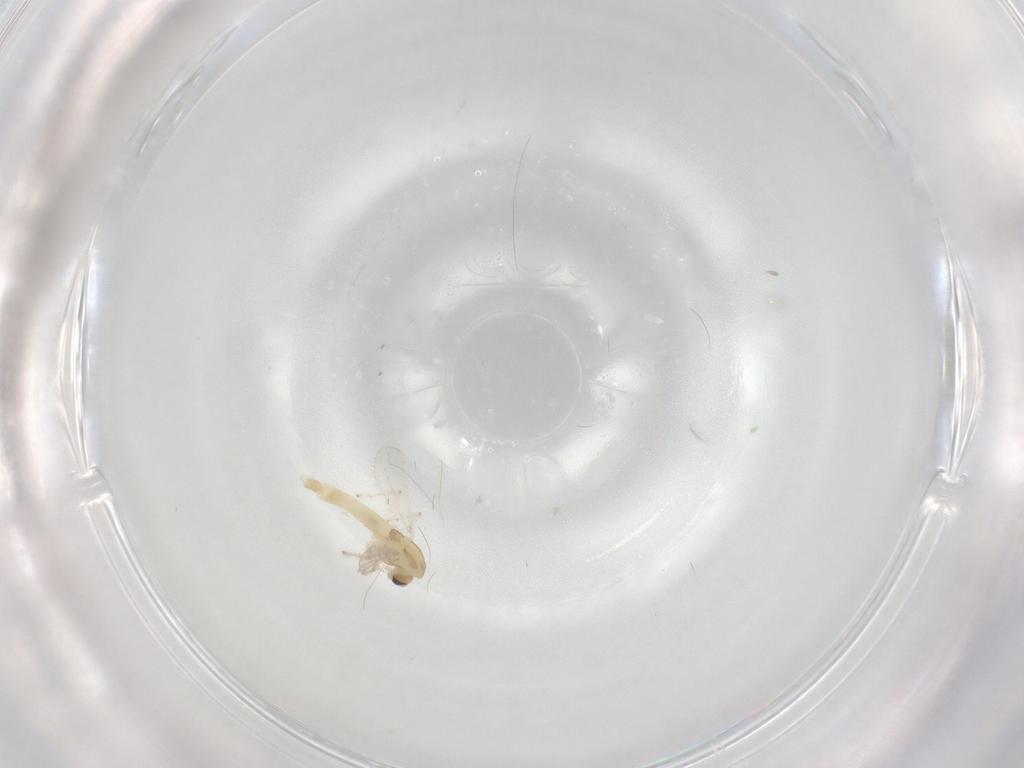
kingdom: Animalia
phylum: Arthropoda
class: Insecta
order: Diptera
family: Chironomidae
